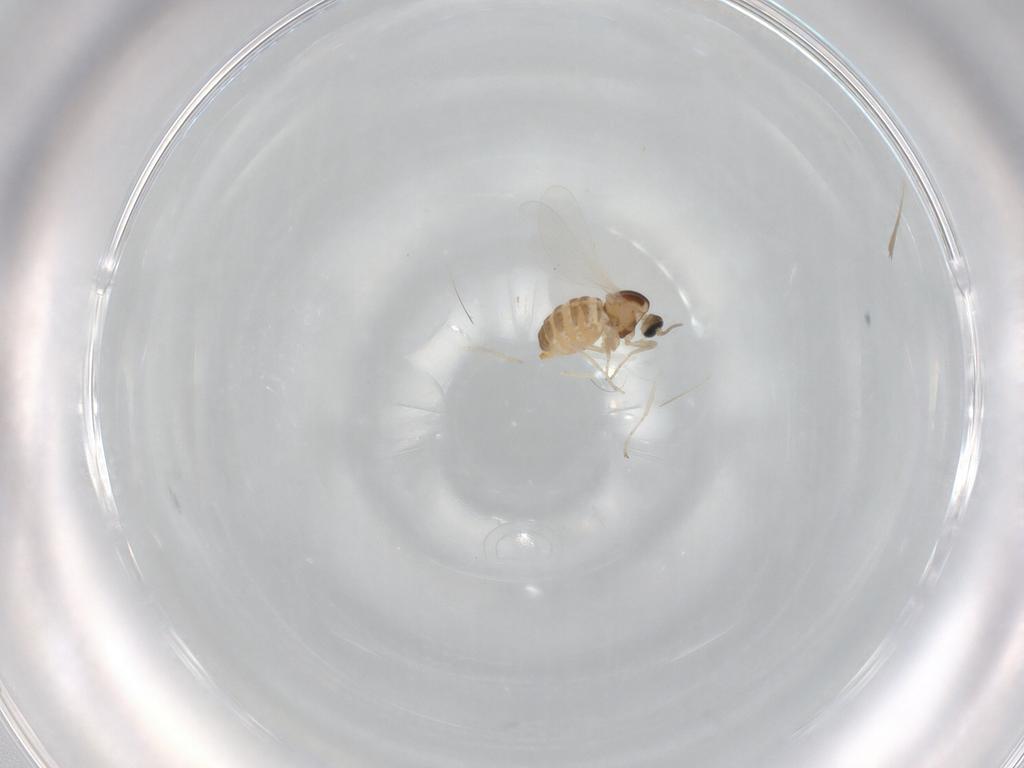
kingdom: Animalia
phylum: Arthropoda
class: Insecta
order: Diptera
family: Cecidomyiidae
